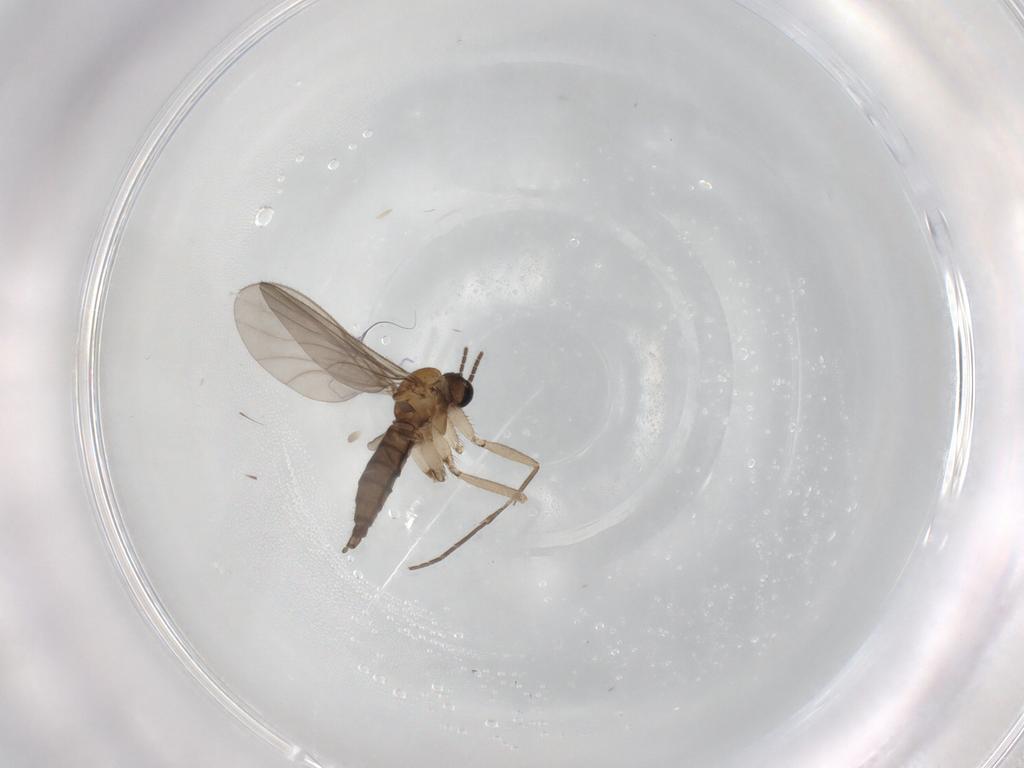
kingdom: Animalia
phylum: Arthropoda
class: Insecta
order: Diptera
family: Sciaridae
